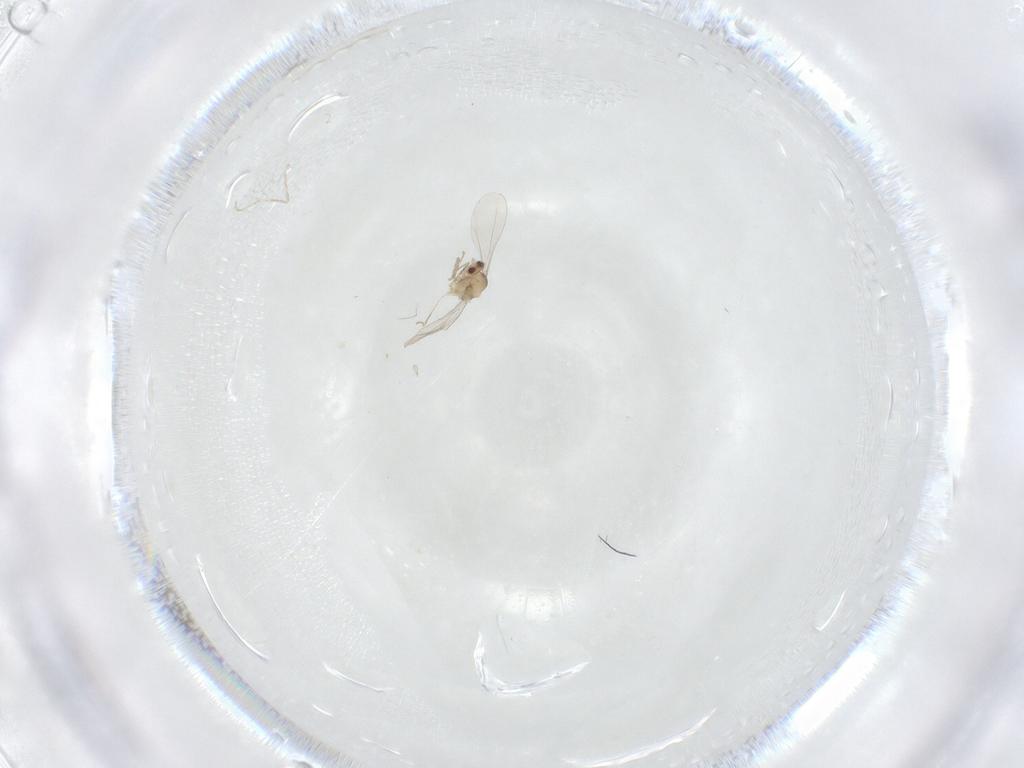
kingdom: Animalia
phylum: Arthropoda
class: Insecta
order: Diptera
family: Cecidomyiidae
